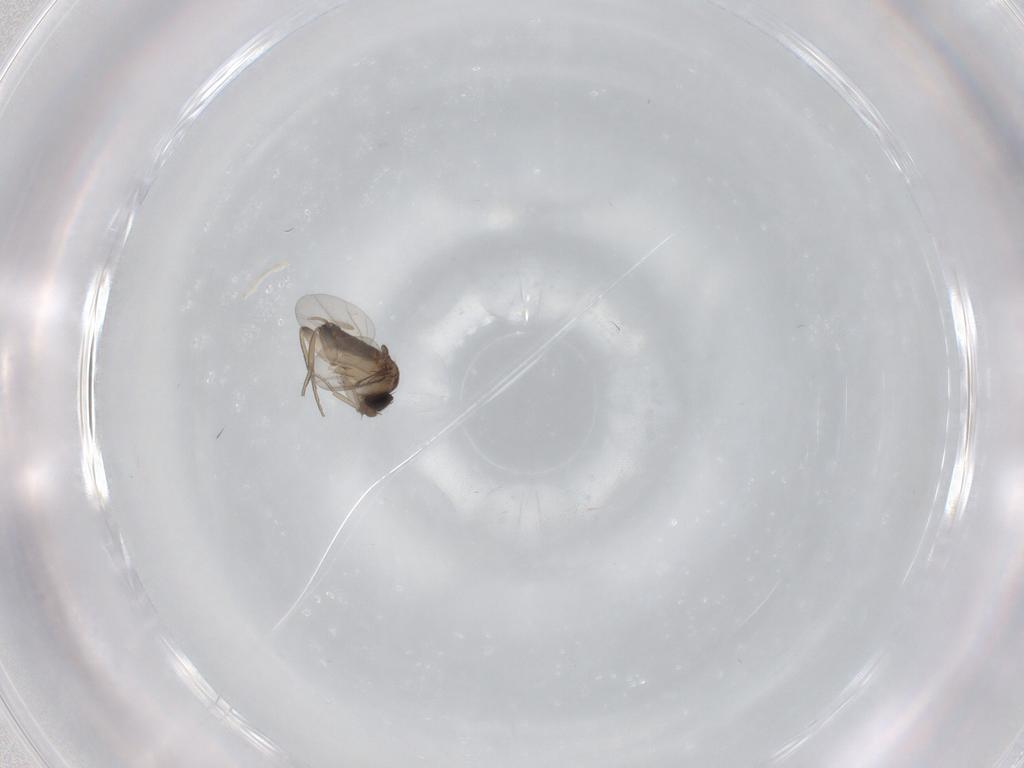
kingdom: Animalia
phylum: Arthropoda
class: Insecta
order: Diptera
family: Phoridae
